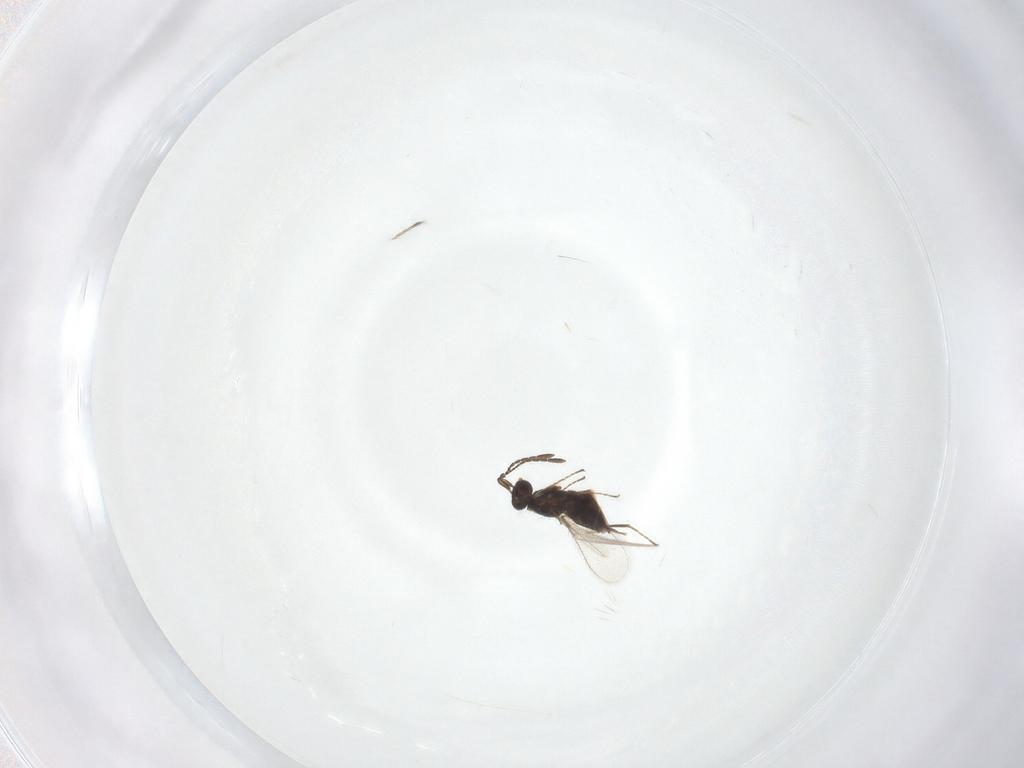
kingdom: Animalia
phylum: Arthropoda
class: Insecta
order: Hymenoptera
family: Mymaridae
